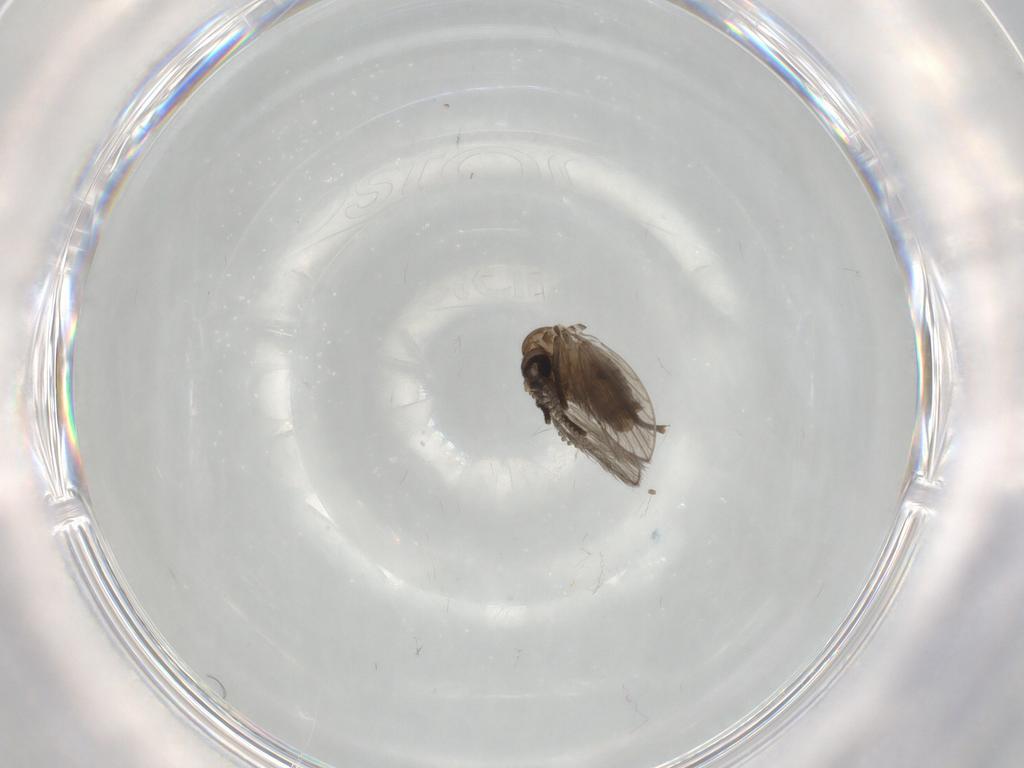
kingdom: Animalia
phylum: Arthropoda
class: Insecta
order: Diptera
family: Psychodidae
